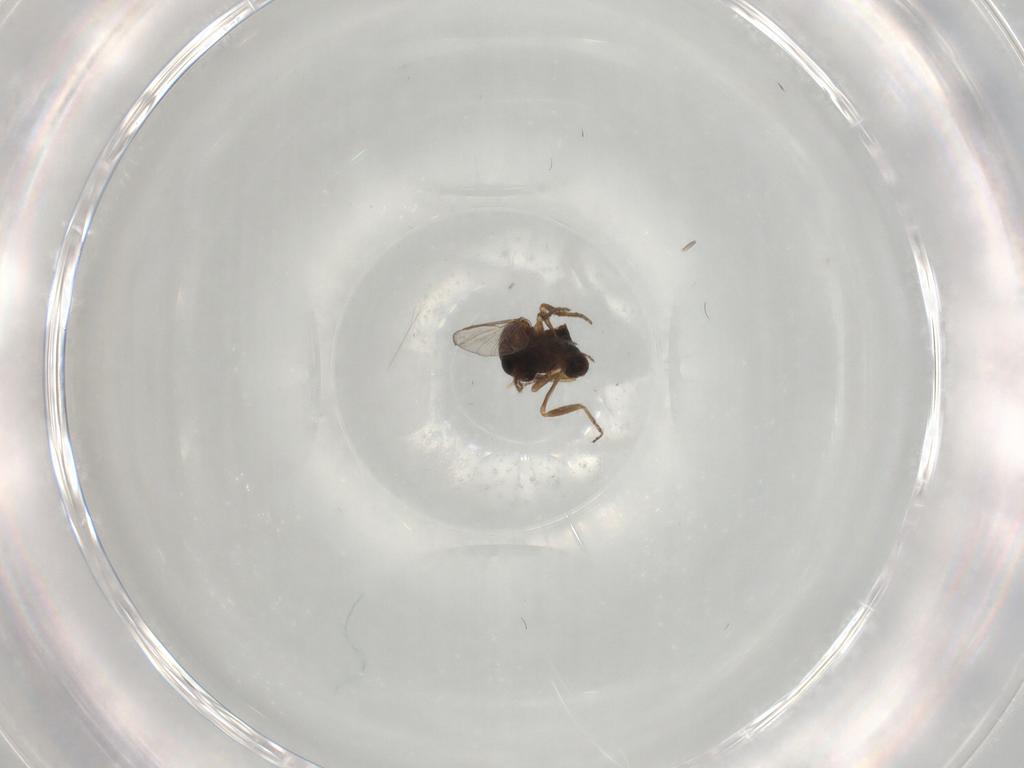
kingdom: Animalia
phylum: Arthropoda
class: Insecta
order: Diptera
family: Ceratopogonidae
